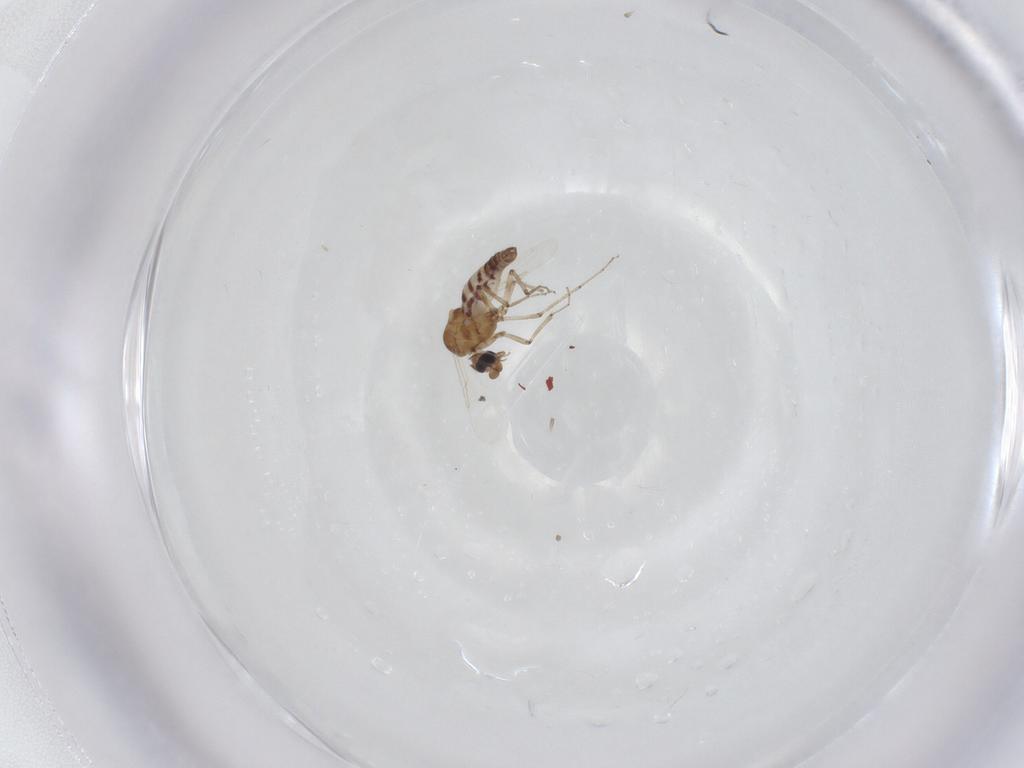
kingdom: Animalia
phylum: Arthropoda
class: Insecta
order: Diptera
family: Ceratopogonidae
